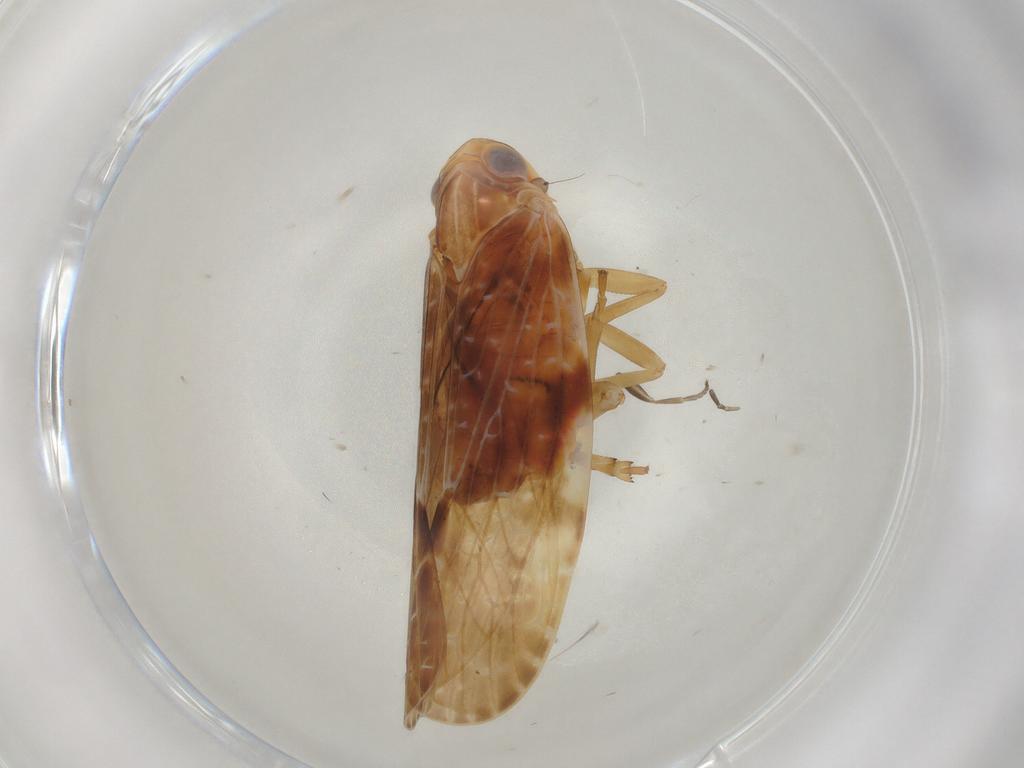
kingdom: Animalia
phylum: Arthropoda
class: Insecta
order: Hemiptera
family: Achilidae
